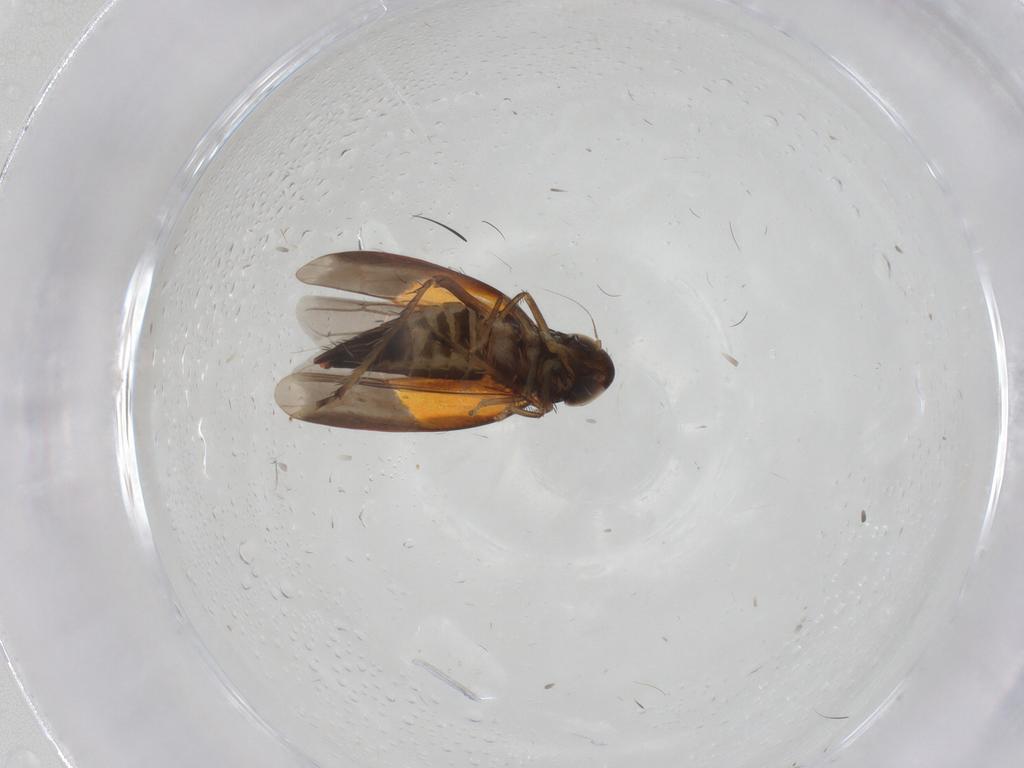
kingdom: Animalia
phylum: Arthropoda
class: Insecta
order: Hemiptera
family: Cicadellidae
